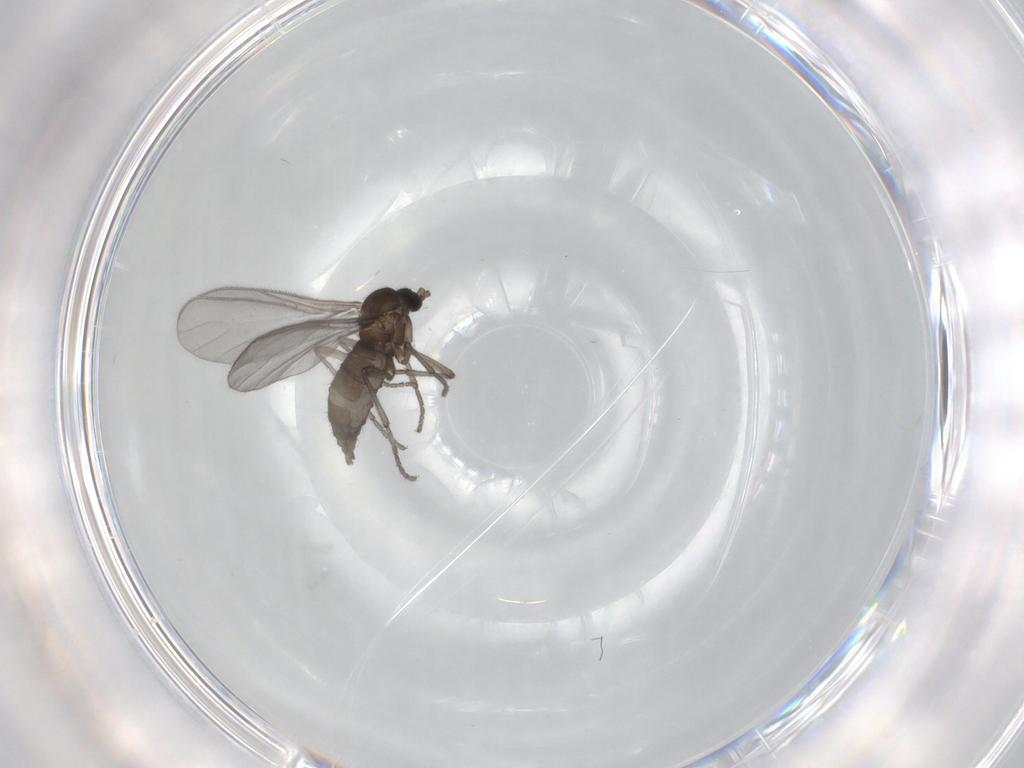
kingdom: Animalia
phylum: Arthropoda
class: Insecta
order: Diptera
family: Sciaridae
